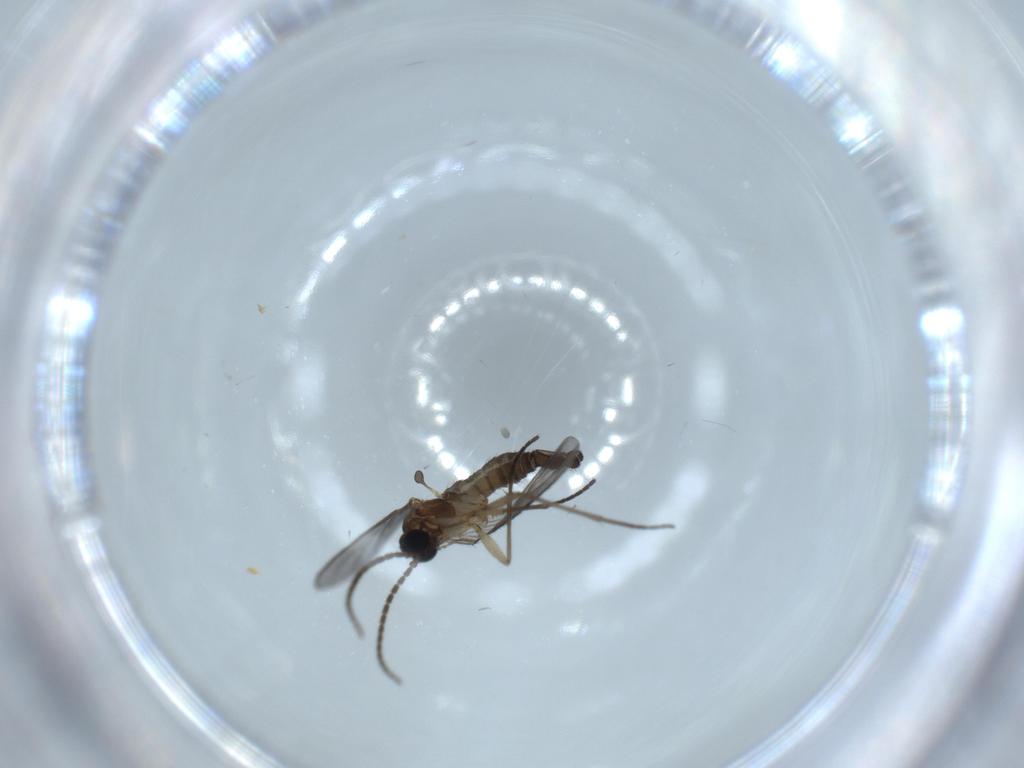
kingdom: Animalia
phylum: Arthropoda
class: Insecta
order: Diptera
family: Sciaridae
